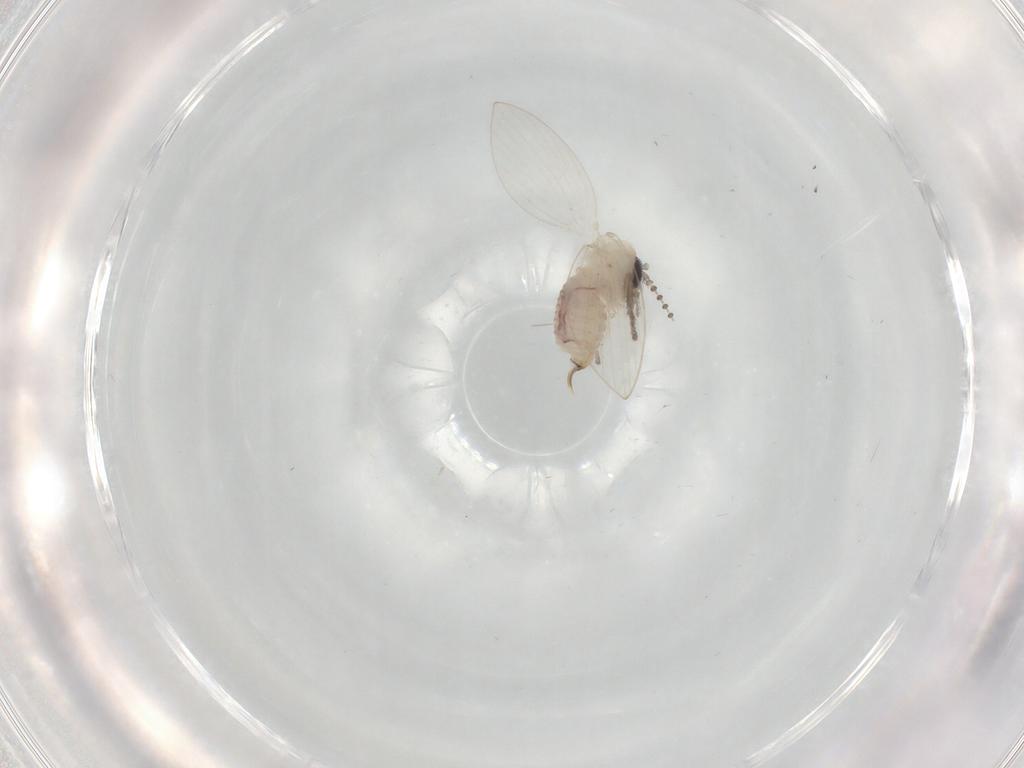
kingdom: Animalia
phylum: Arthropoda
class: Insecta
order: Diptera
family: Psychodidae
